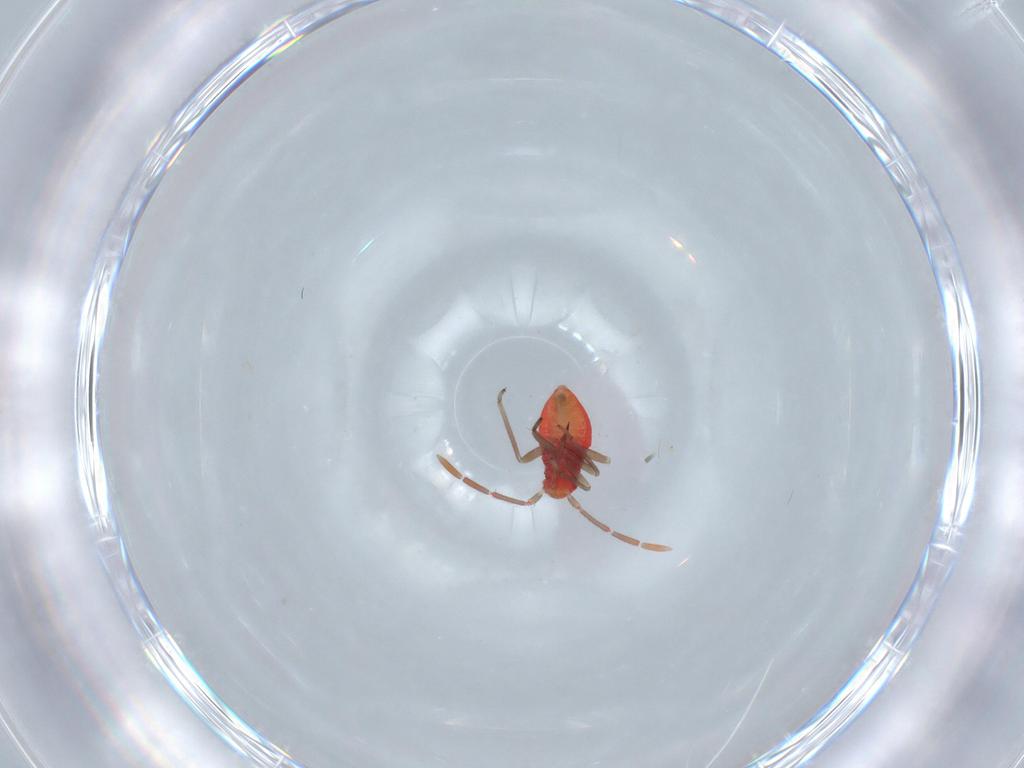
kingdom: Animalia
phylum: Arthropoda
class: Insecta
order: Hemiptera
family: Miridae
